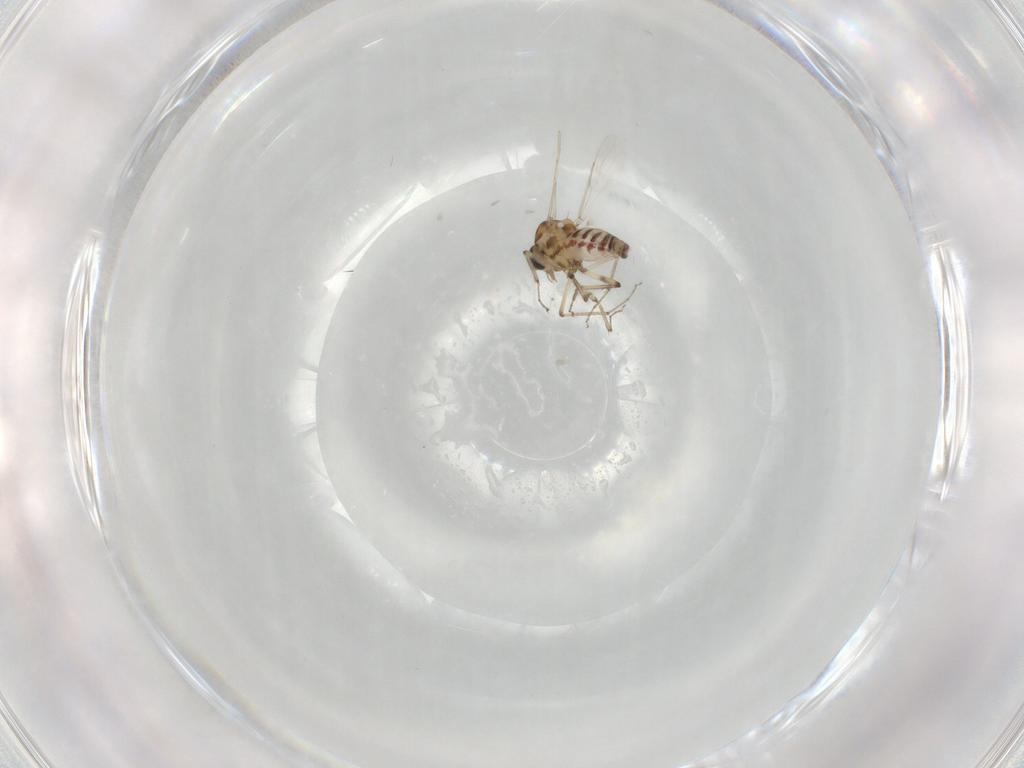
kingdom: Animalia
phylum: Arthropoda
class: Insecta
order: Diptera
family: Ceratopogonidae
